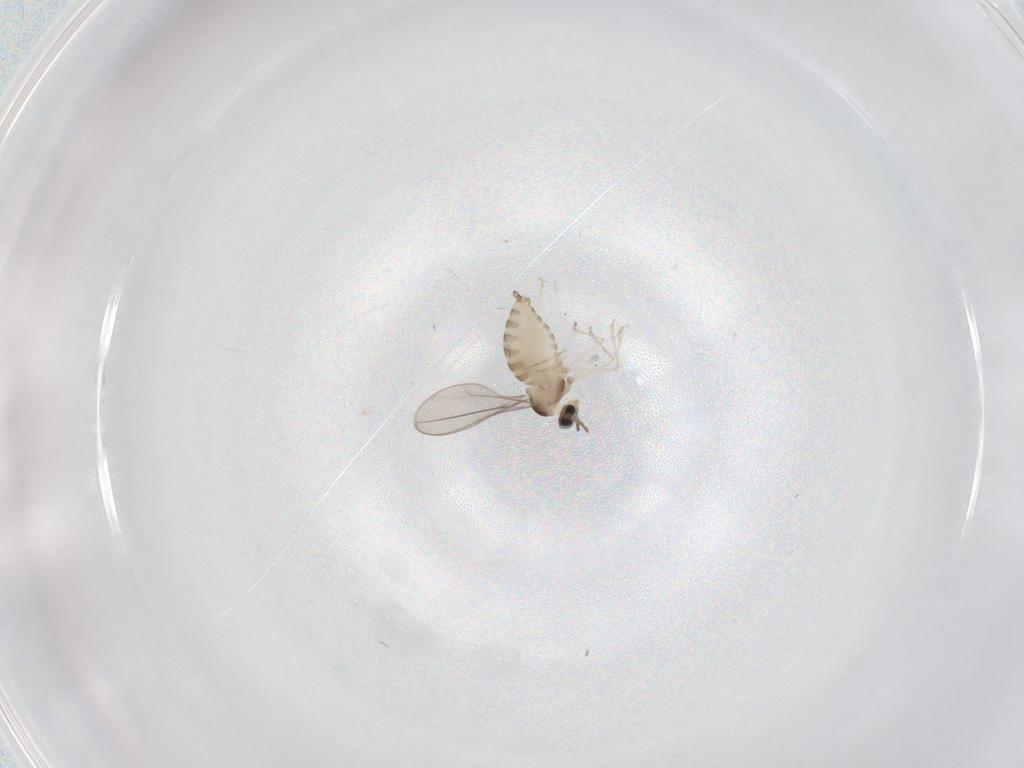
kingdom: Animalia
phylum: Arthropoda
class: Insecta
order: Diptera
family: Cecidomyiidae
